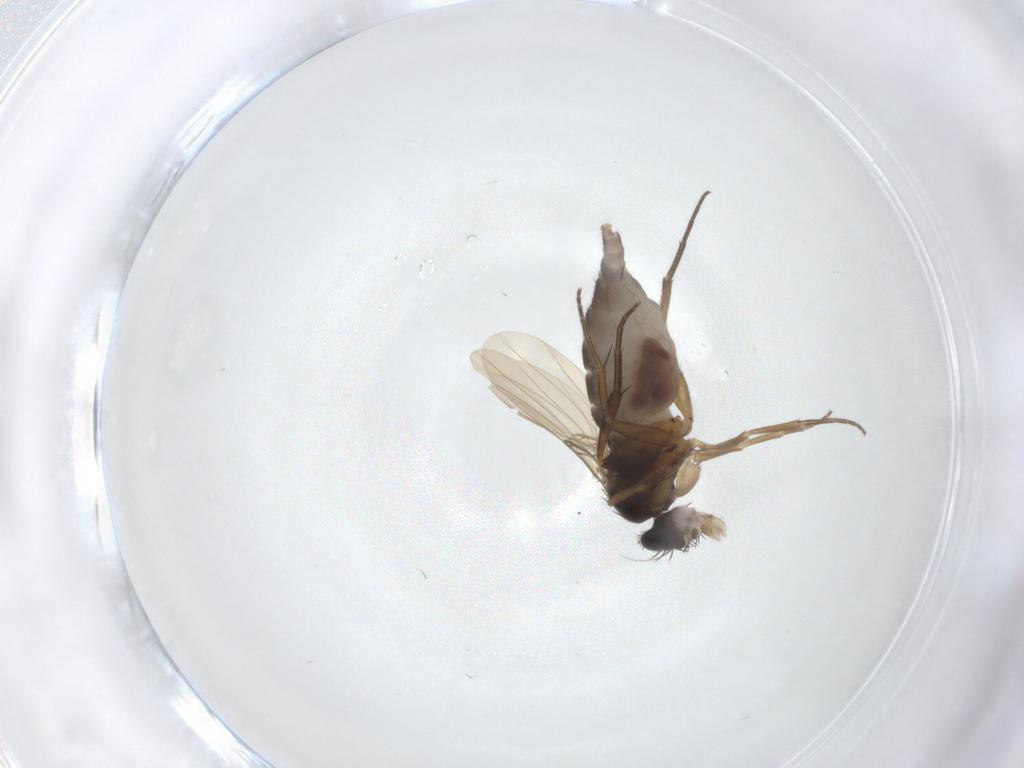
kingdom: Animalia
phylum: Arthropoda
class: Insecta
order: Diptera
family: Phoridae
